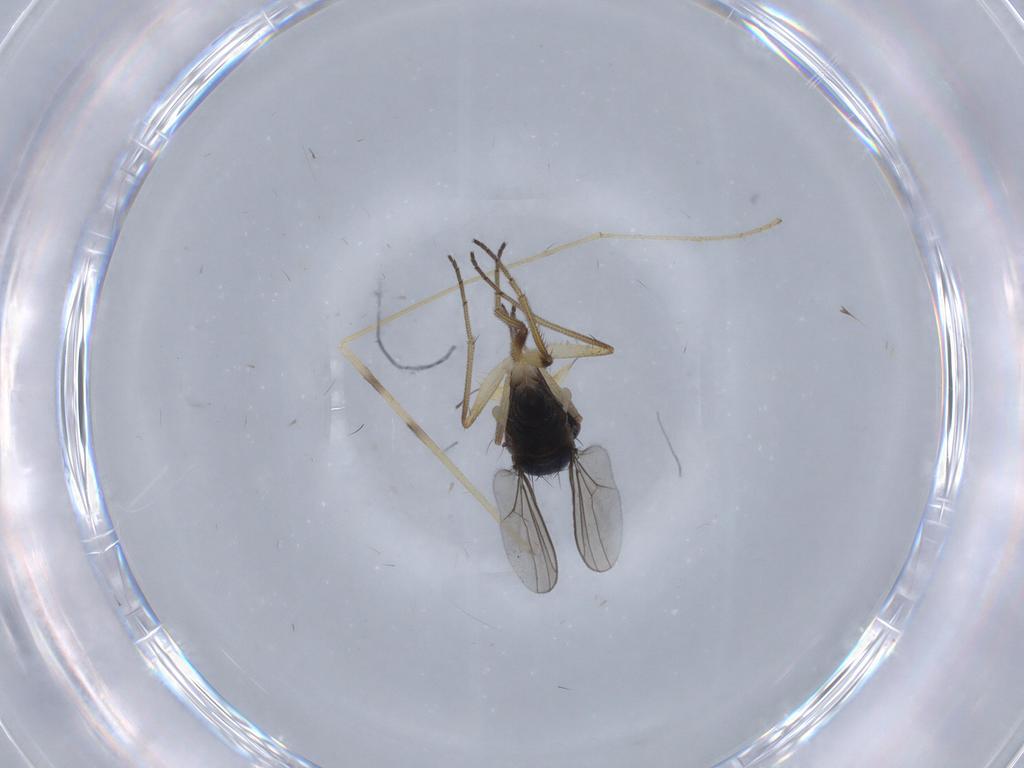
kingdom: Animalia
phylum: Arthropoda
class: Insecta
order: Diptera
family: Dolichopodidae
